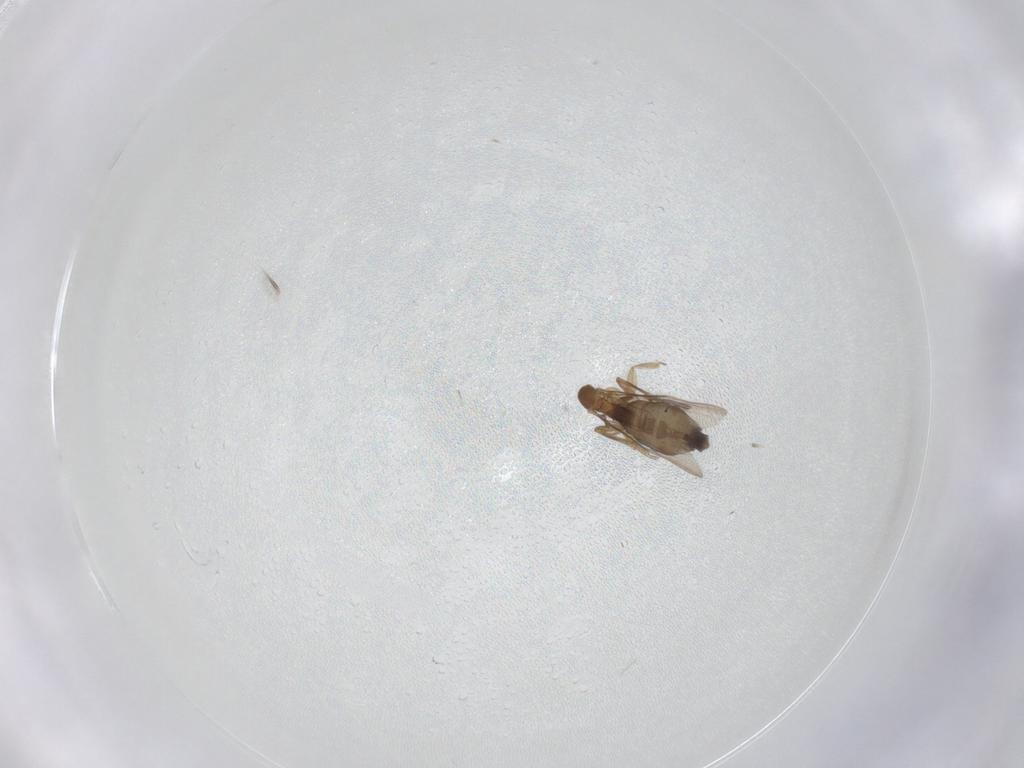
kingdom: Animalia
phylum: Arthropoda
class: Insecta
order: Diptera
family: Phoridae
